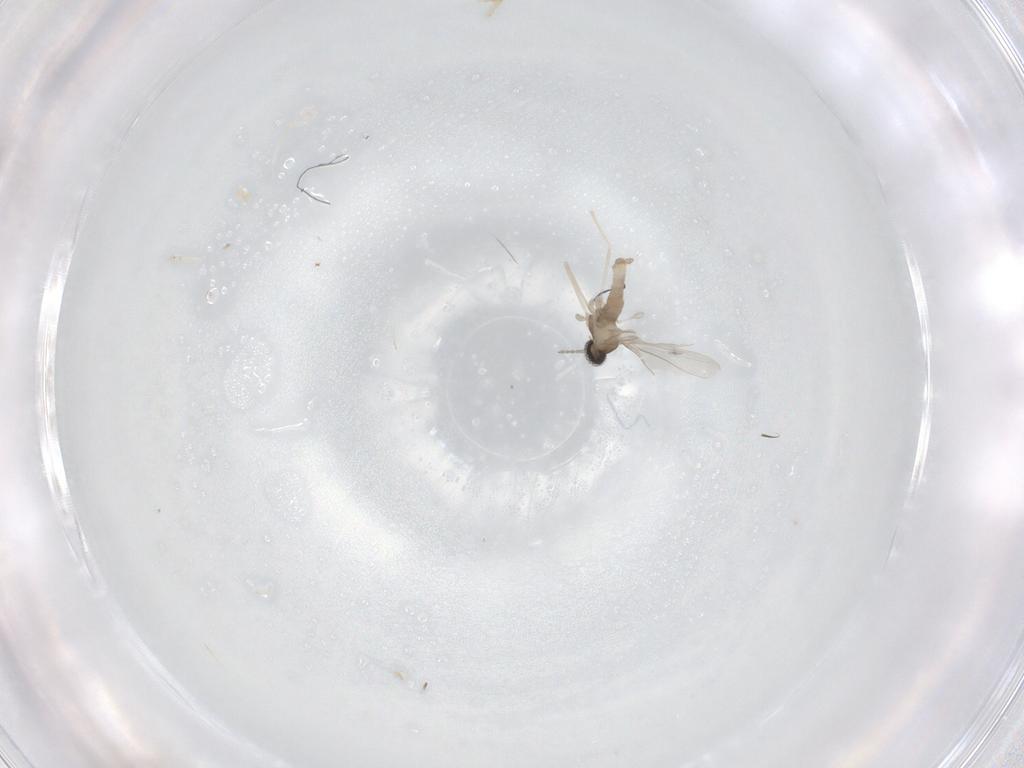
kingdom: Animalia
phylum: Arthropoda
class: Insecta
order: Diptera
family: Cecidomyiidae
